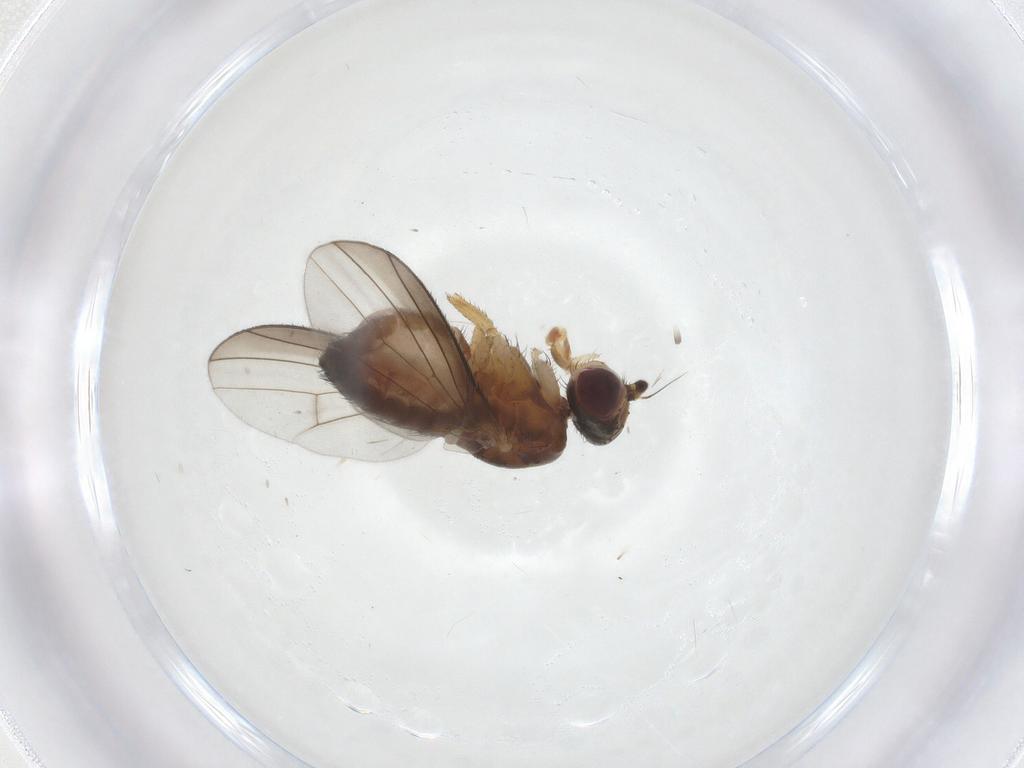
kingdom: Animalia
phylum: Arthropoda
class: Insecta
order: Diptera
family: Heleomyzidae
